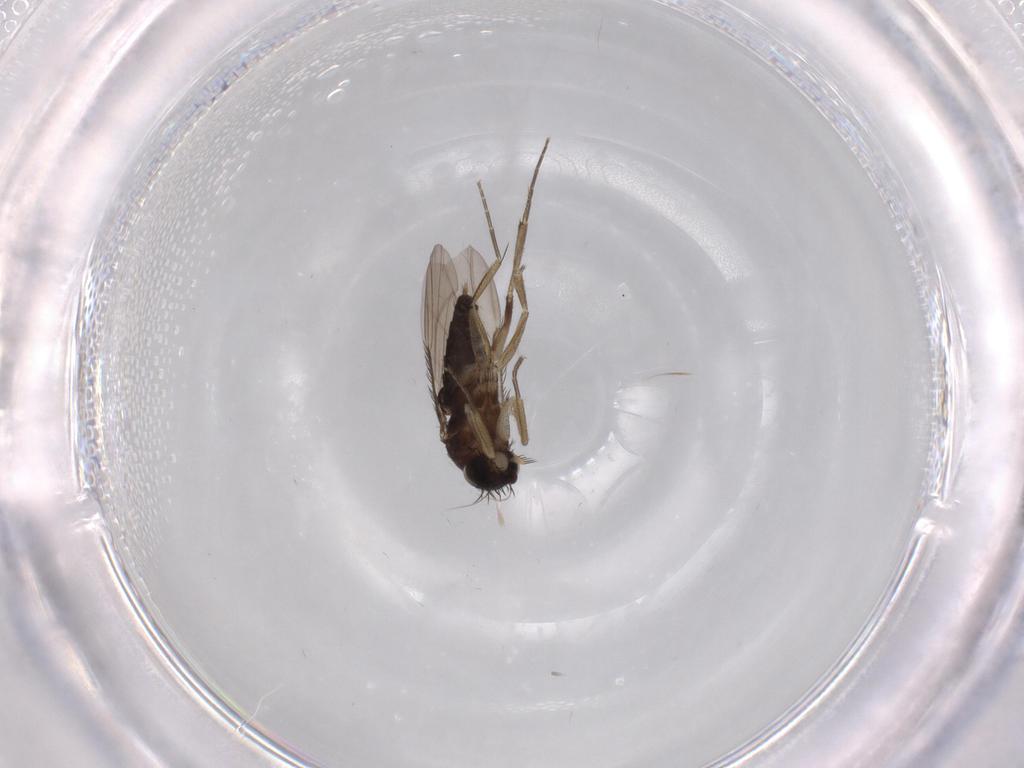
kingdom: Animalia
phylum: Arthropoda
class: Insecta
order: Diptera
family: Phoridae
